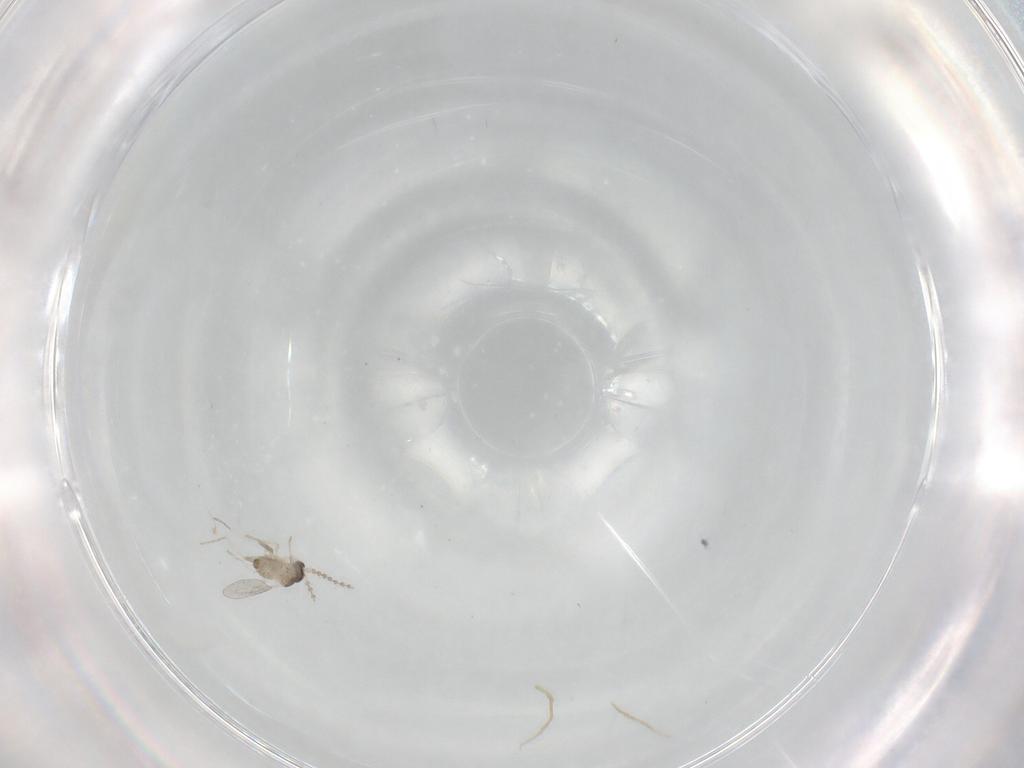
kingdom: Animalia
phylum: Arthropoda
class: Insecta
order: Diptera
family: Cecidomyiidae
